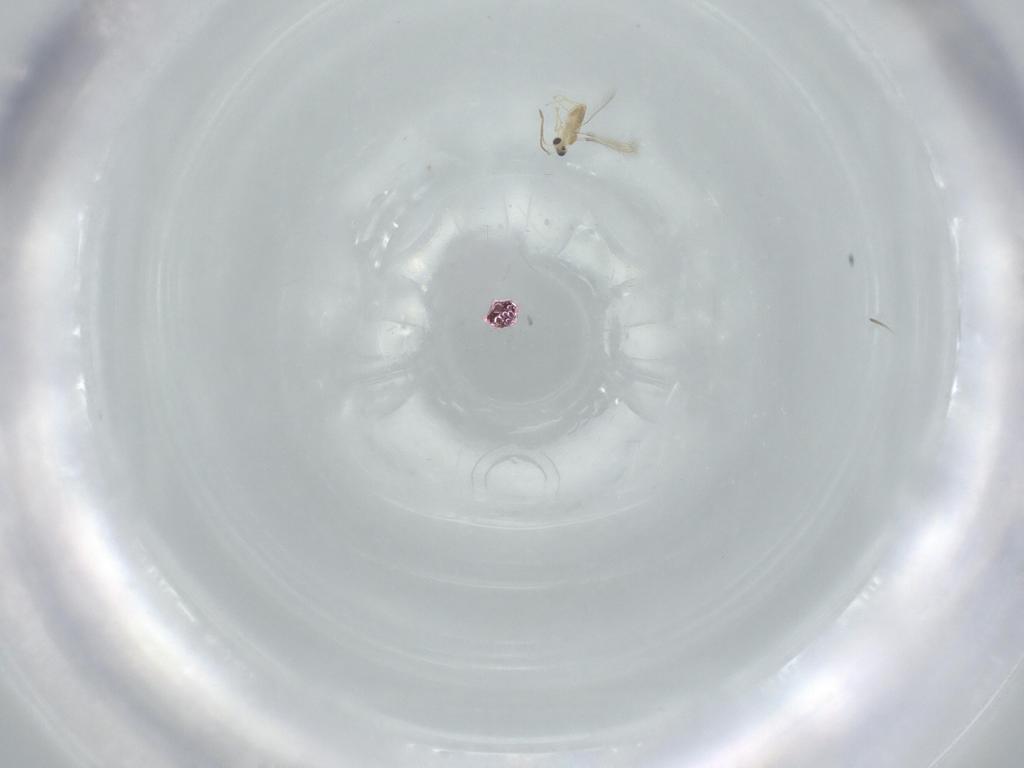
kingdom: Animalia
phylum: Arthropoda
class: Insecta
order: Hymenoptera
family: Mymaridae
